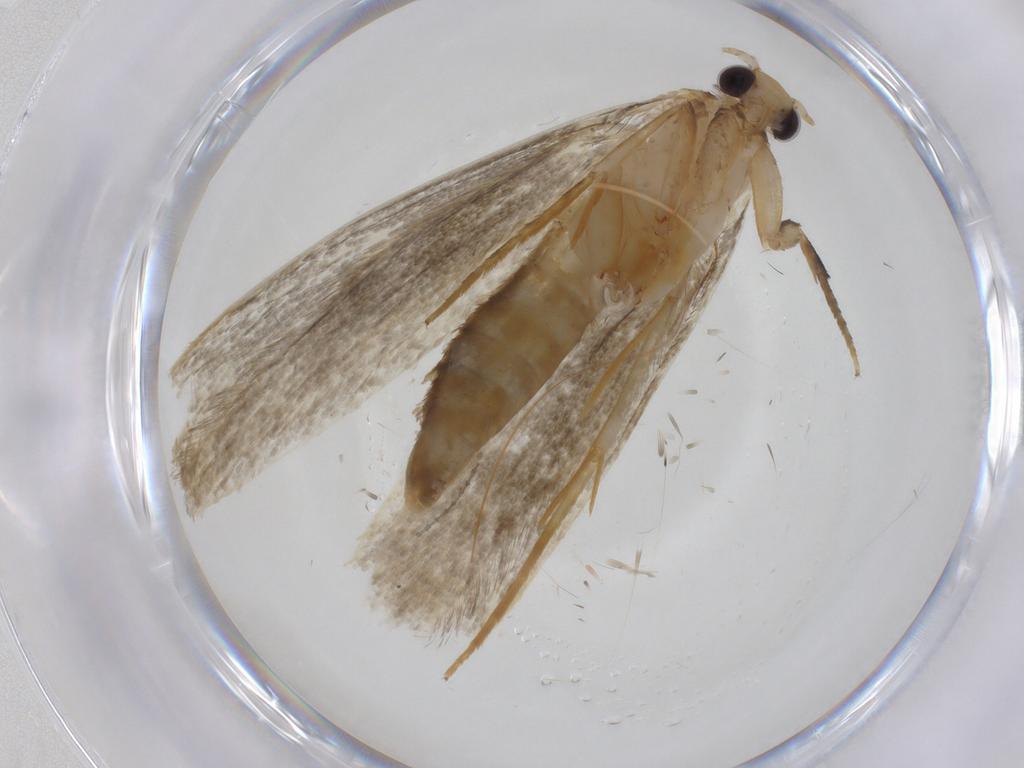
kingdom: Animalia
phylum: Arthropoda
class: Insecta
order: Lepidoptera
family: Tineidae
